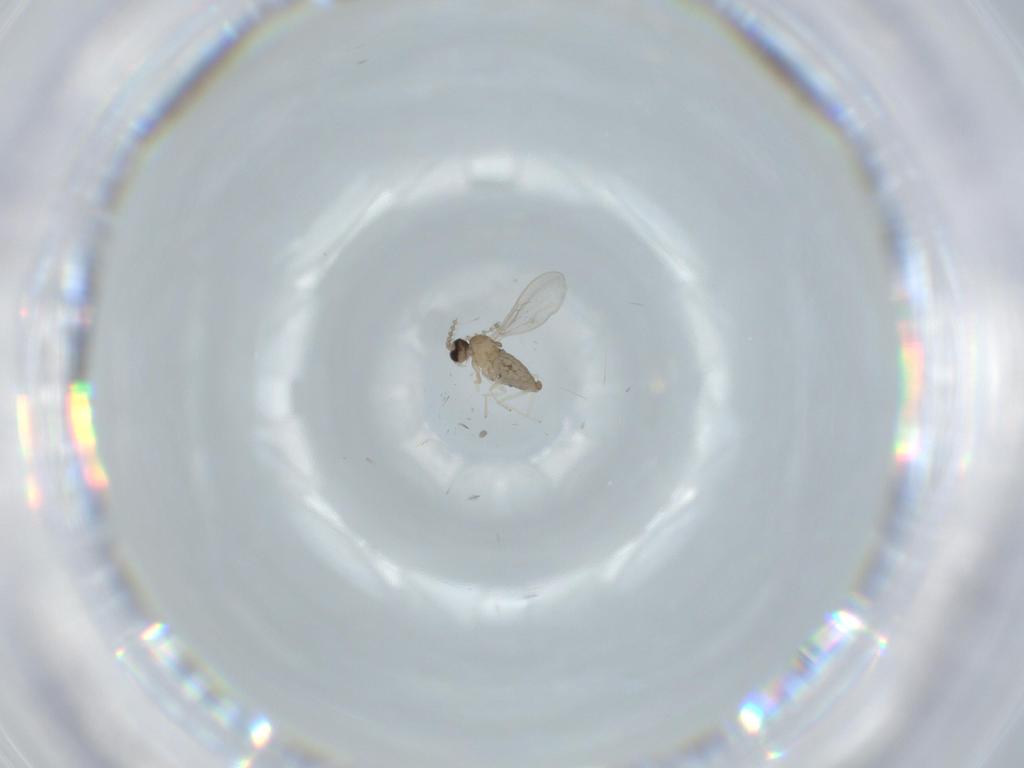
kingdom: Animalia
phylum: Arthropoda
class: Insecta
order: Diptera
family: Cecidomyiidae
